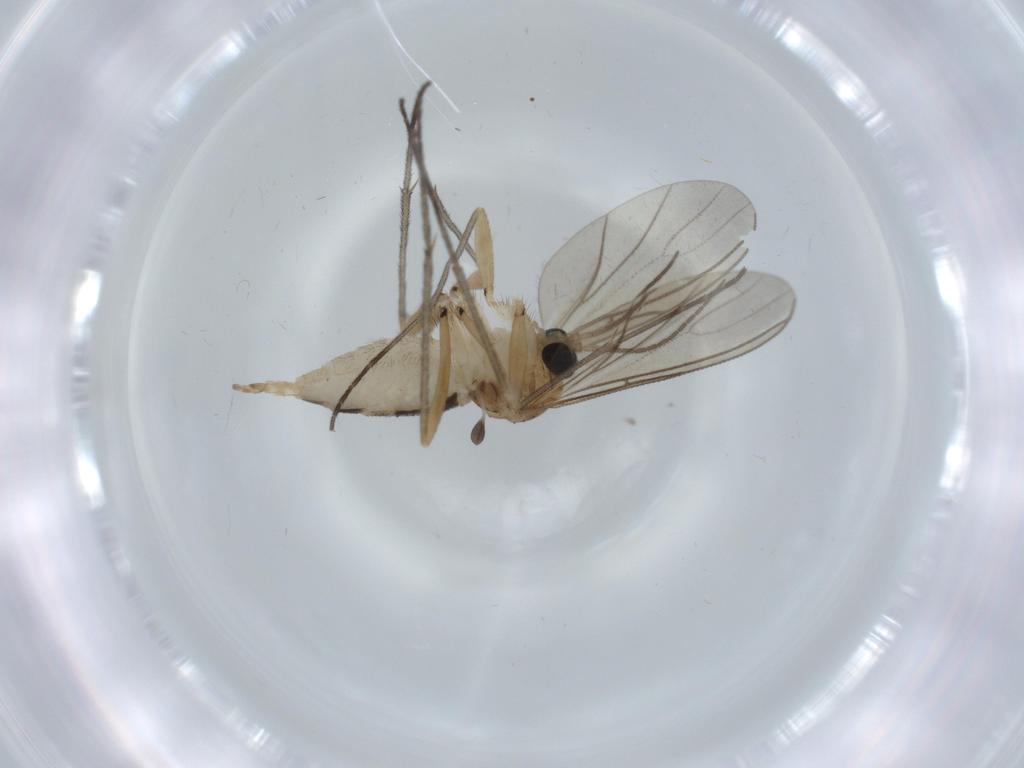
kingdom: Animalia
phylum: Arthropoda
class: Insecta
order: Diptera
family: Sciaridae
